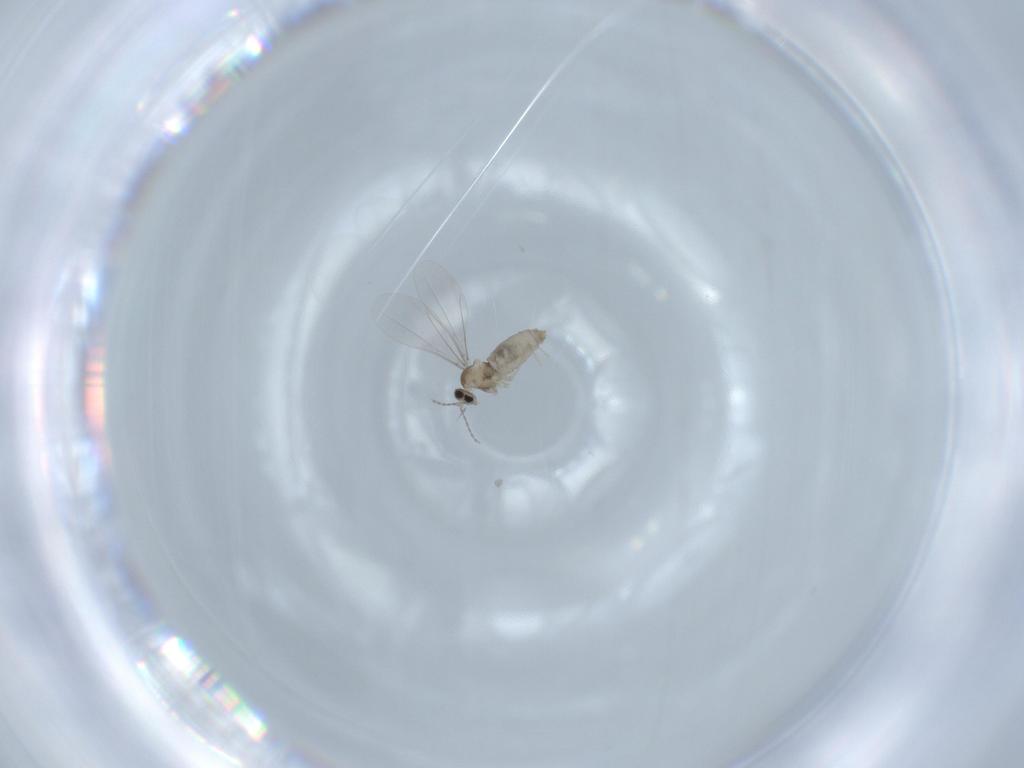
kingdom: Animalia
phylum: Arthropoda
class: Insecta
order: Diptera
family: Cecidomyiidae
